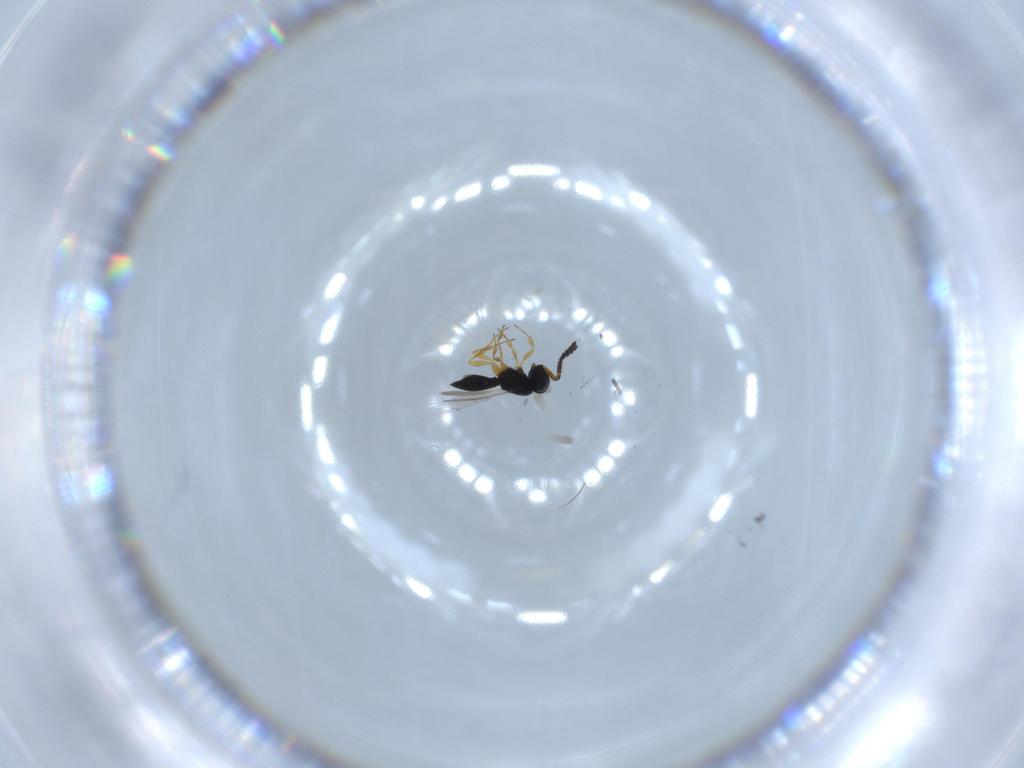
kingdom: Animalia
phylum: Arthropoda
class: Insecta
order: Hymenoptera
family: Scelionidae
